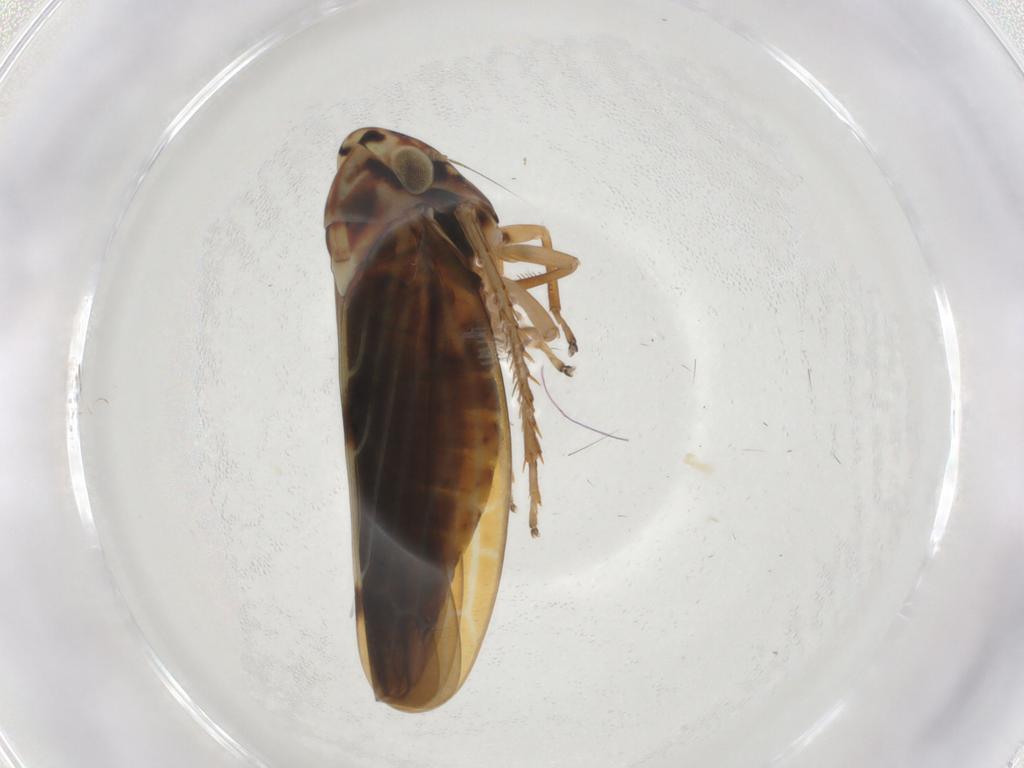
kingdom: Animalia
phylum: Arthropoda
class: Insecta
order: Hemiptera
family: Cicadellidae
